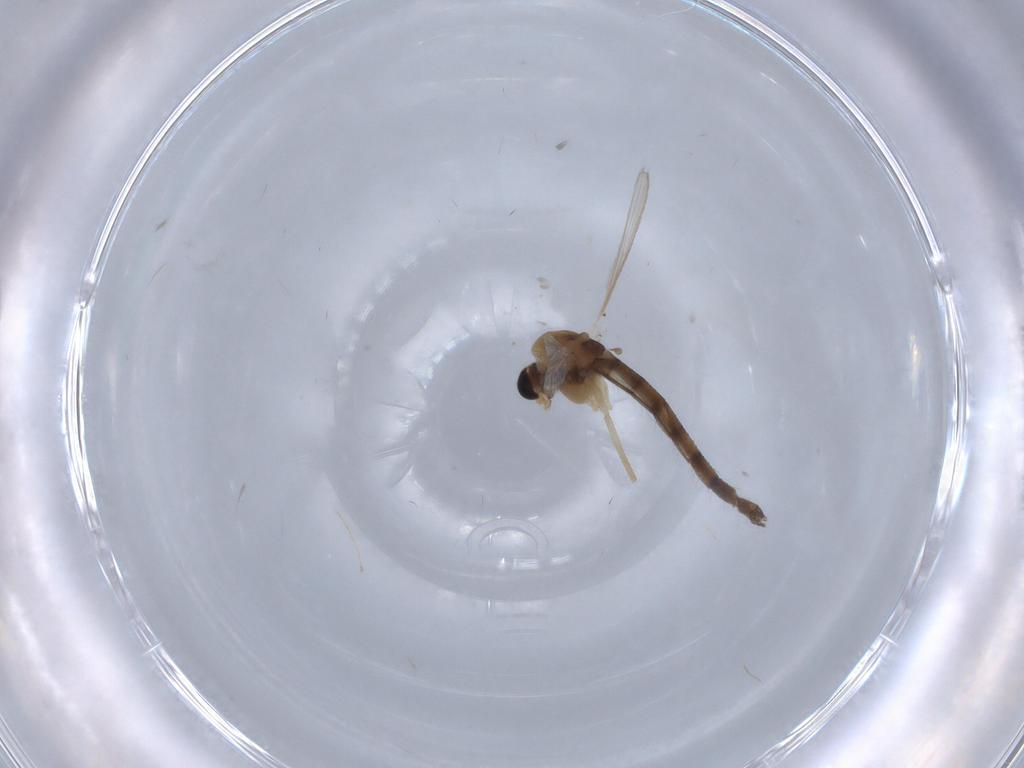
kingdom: Animalia
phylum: Arthropoda
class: Insecta
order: Diptera
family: Chironomidae
